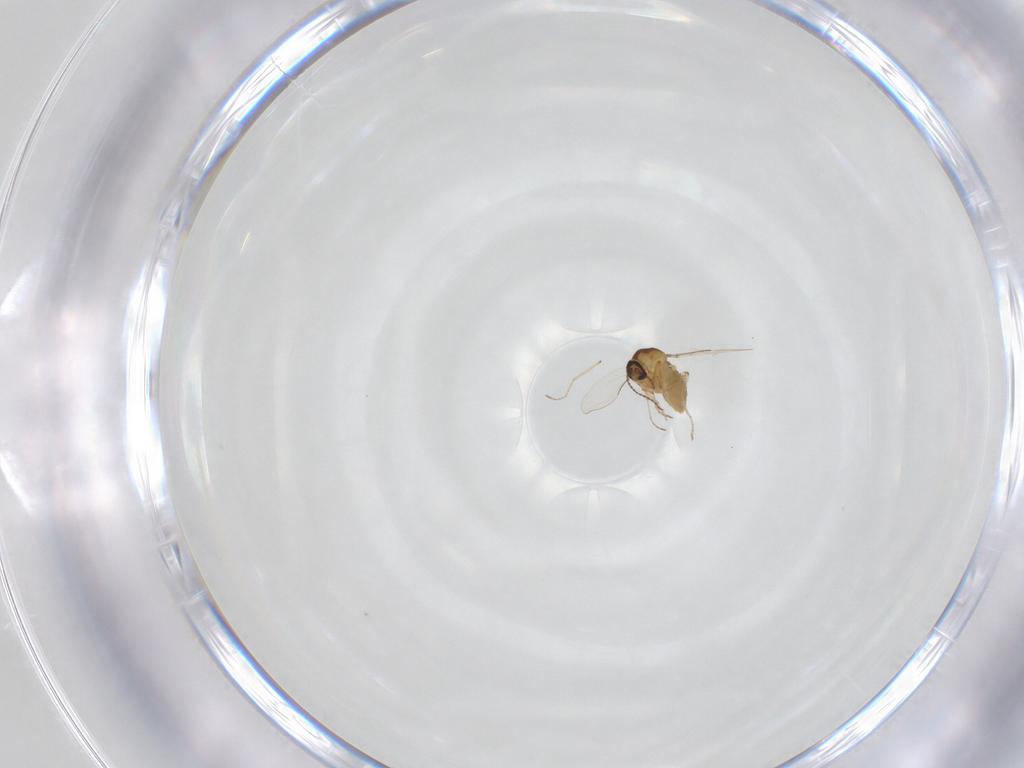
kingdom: Animalia
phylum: Arthropoda
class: Insecta
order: Diptera
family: Ceratopogonidae
